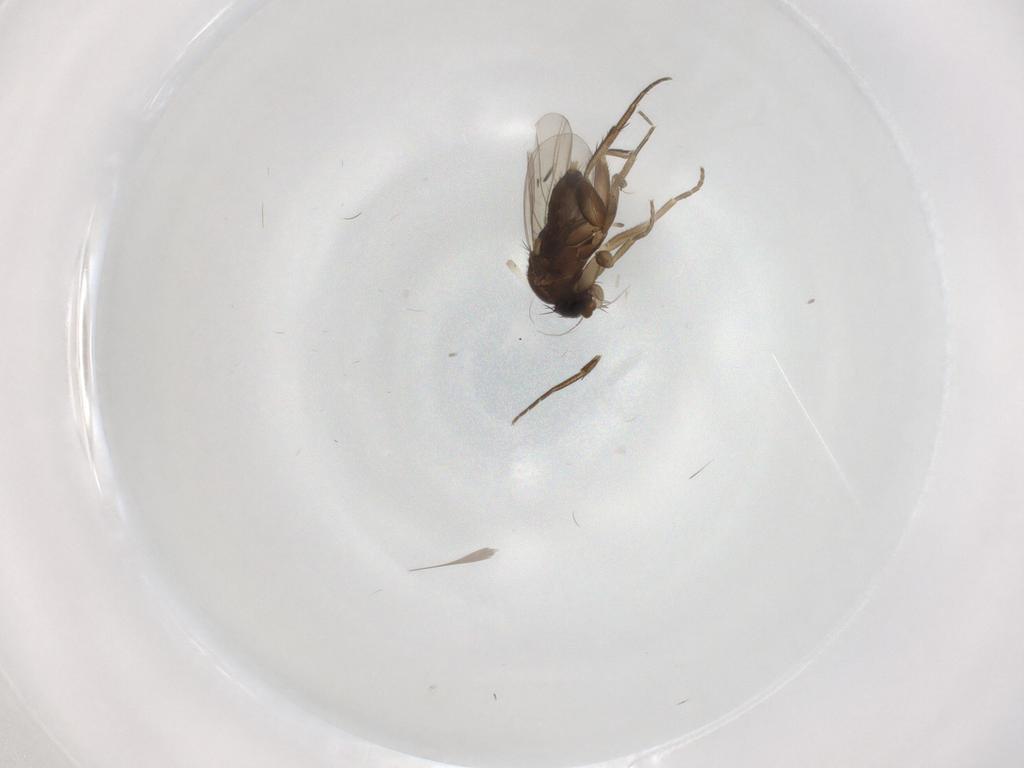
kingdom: Animalia
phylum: Arthropoda
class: Insecta
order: Diptera
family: Phoridae
